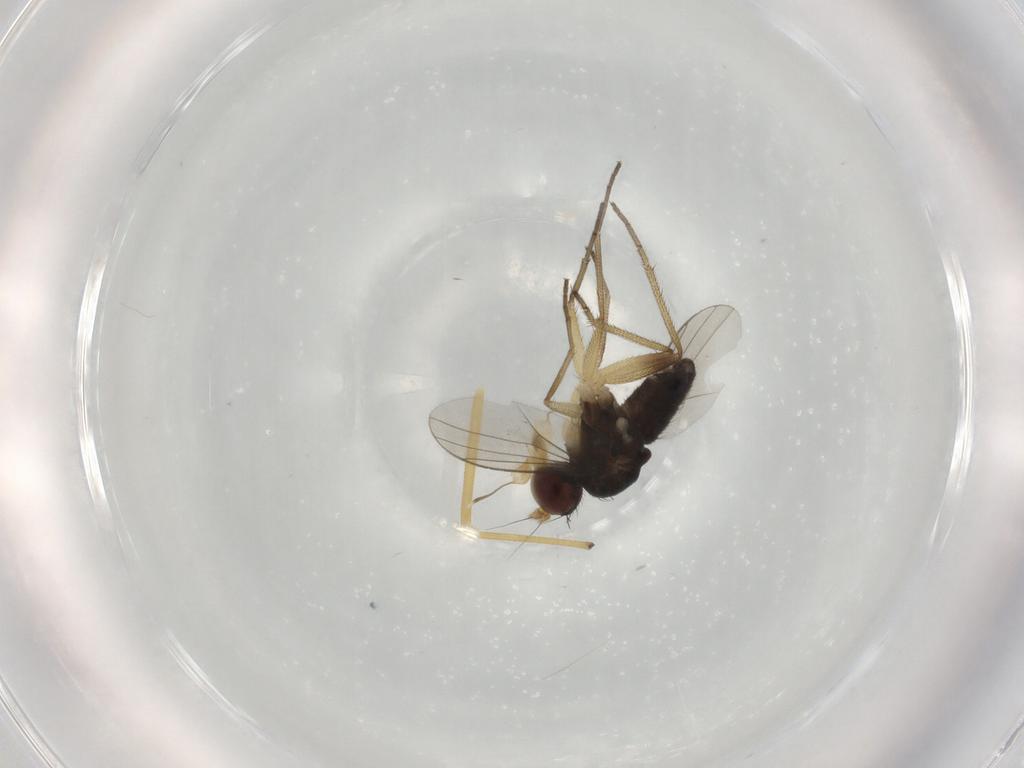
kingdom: Animalia
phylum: Arthropoda
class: Insecta
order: Diptera
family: Dolichopodidae
